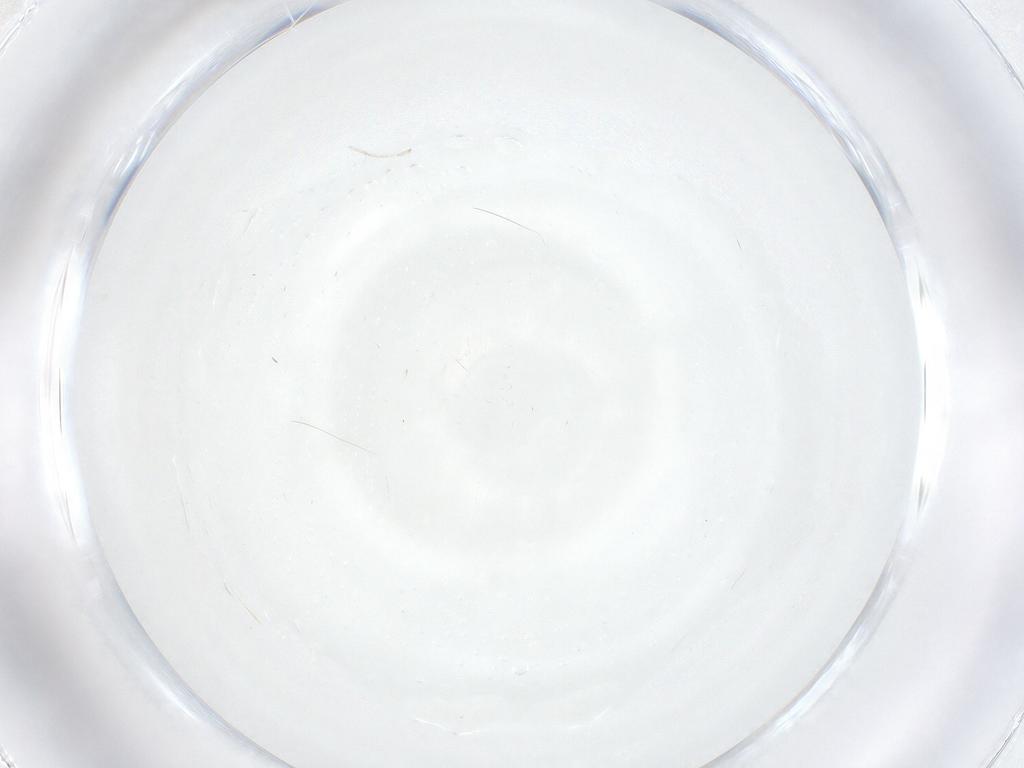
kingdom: Animalia
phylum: Arthropoda
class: Insecta
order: Diptera
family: Cecidomyiidae
